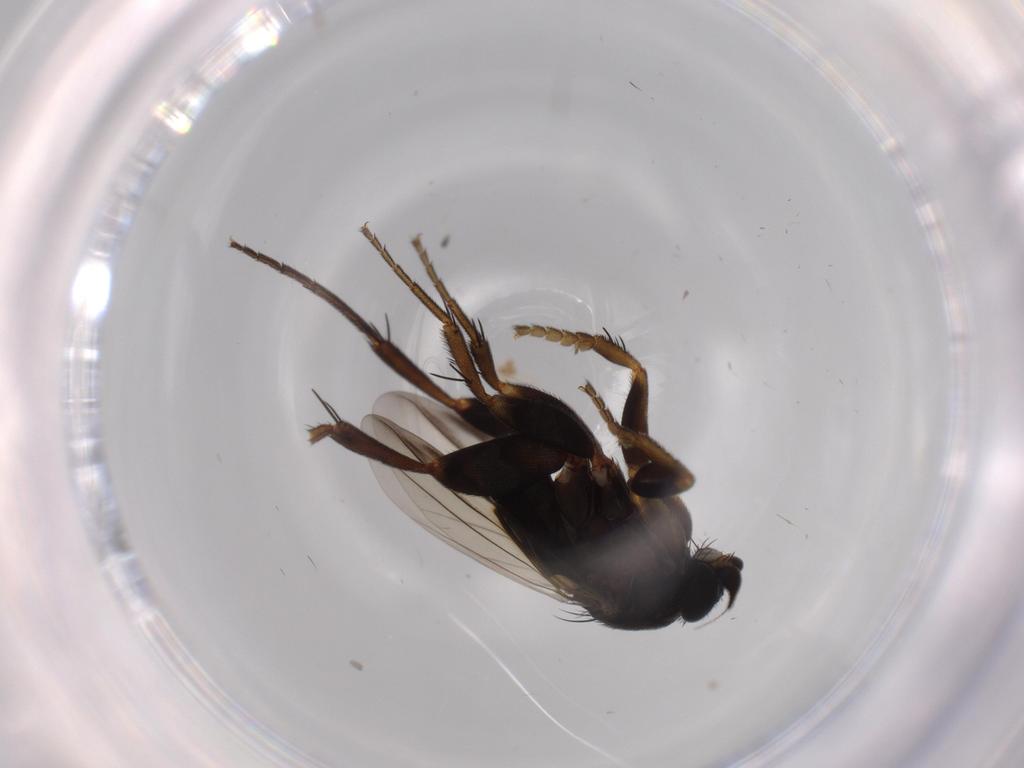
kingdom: Animalia
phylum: Arthropoda
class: Insecta
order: Diptera
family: Phoridae
